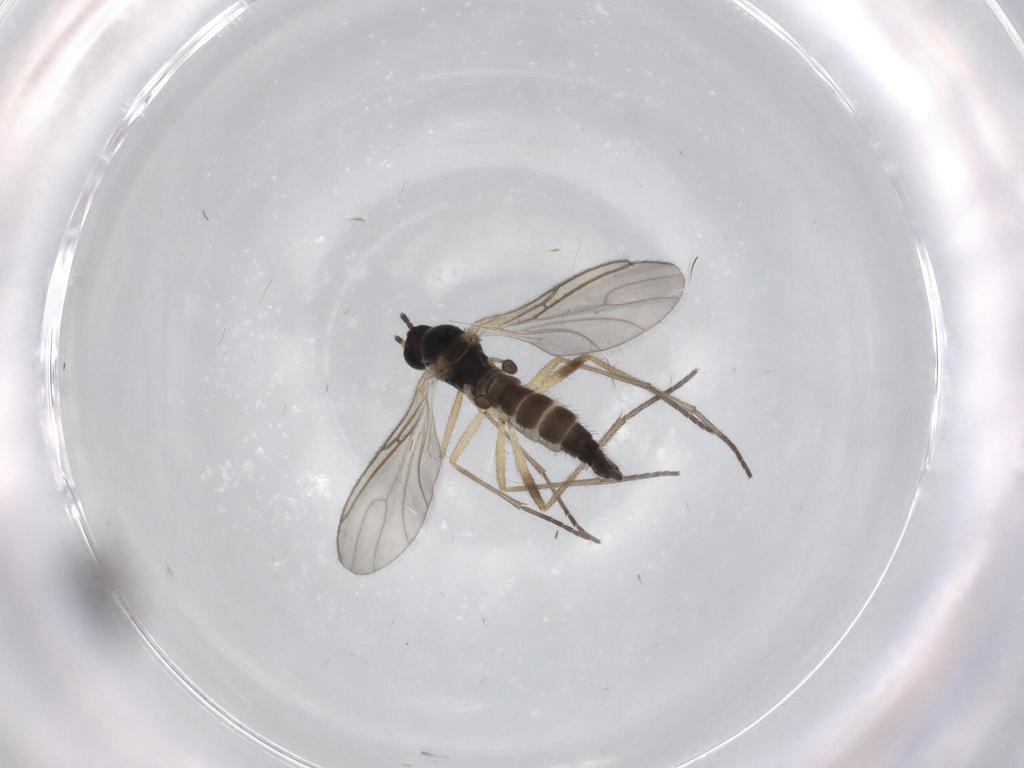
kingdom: Animalia
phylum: Arthropoda
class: Insecta
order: Diptera
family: Sciaridae
